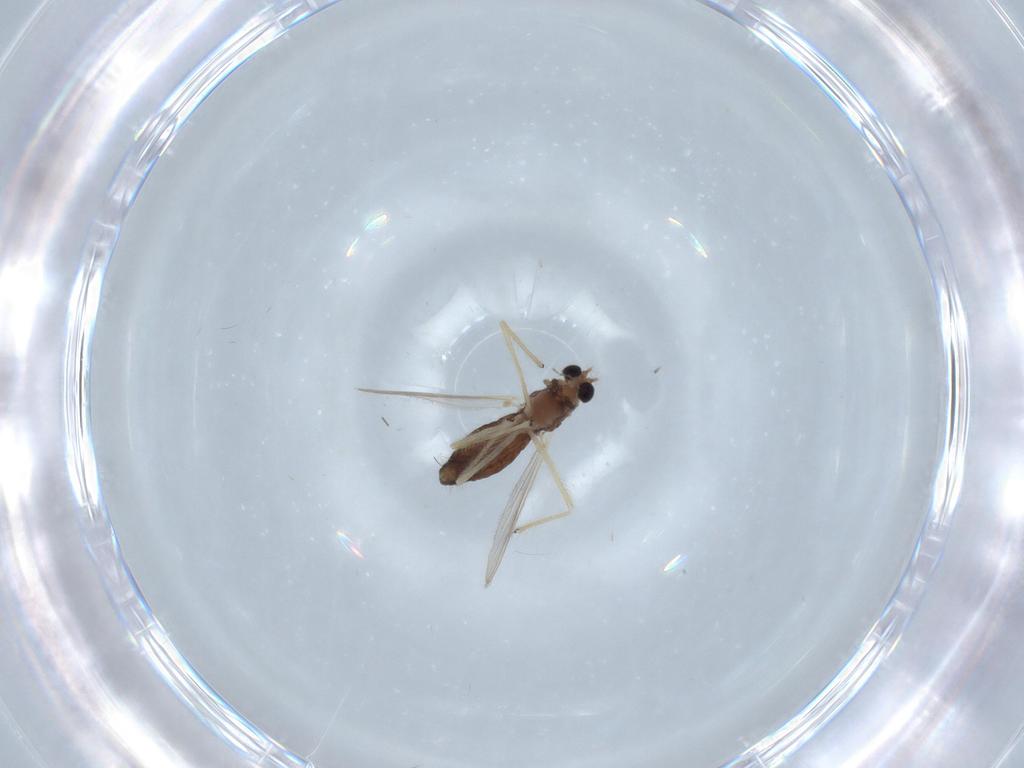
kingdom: Animalia
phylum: Arthropoda
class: Insecta
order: Diptera
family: Chironomidae
